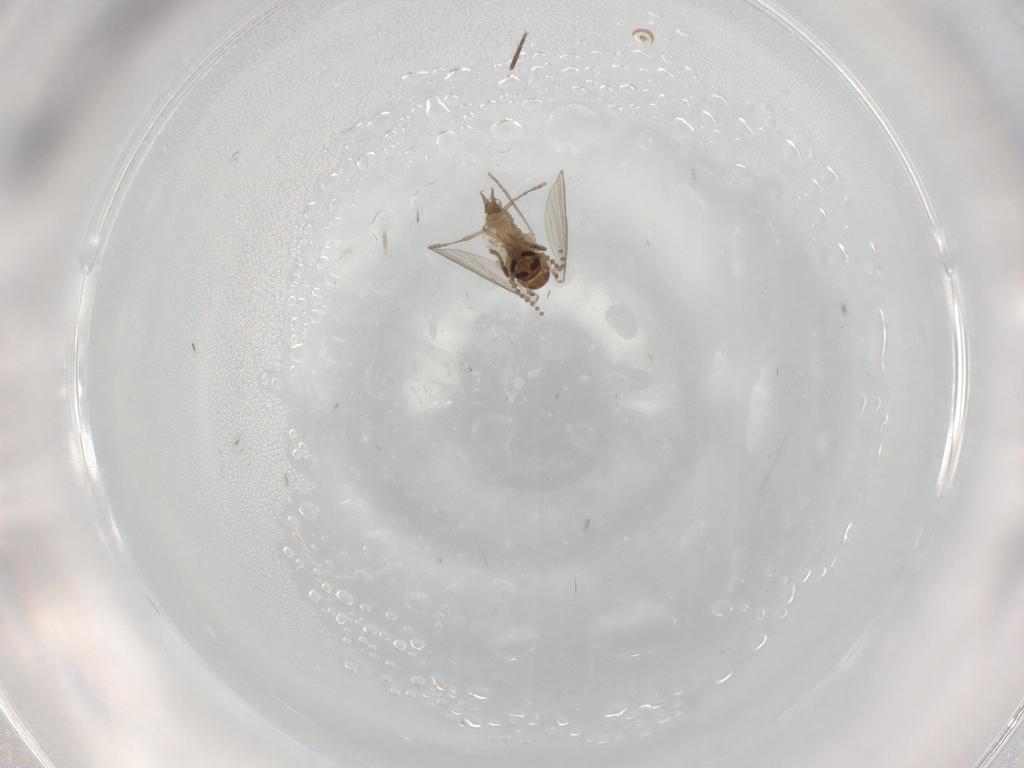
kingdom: Animalia
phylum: Arthropoda
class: Insecta
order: Diptera
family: Psychodidae
